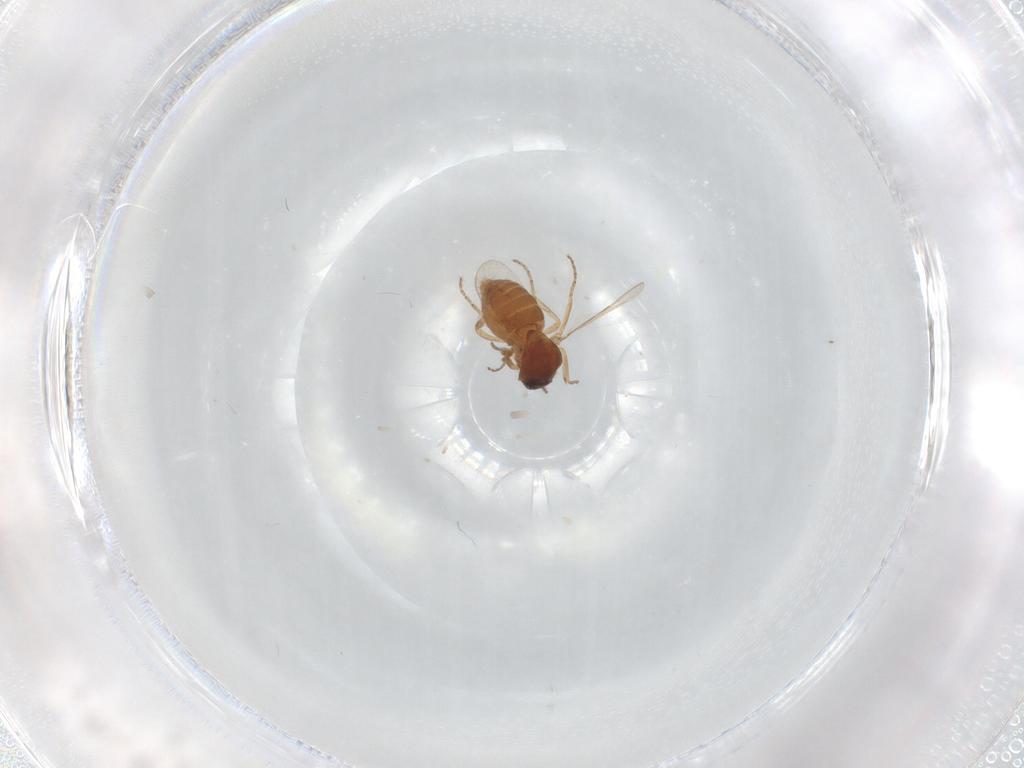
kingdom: Animalia
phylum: Arthropoda
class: Insecta
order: Diptera
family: Ceratopogonidae
